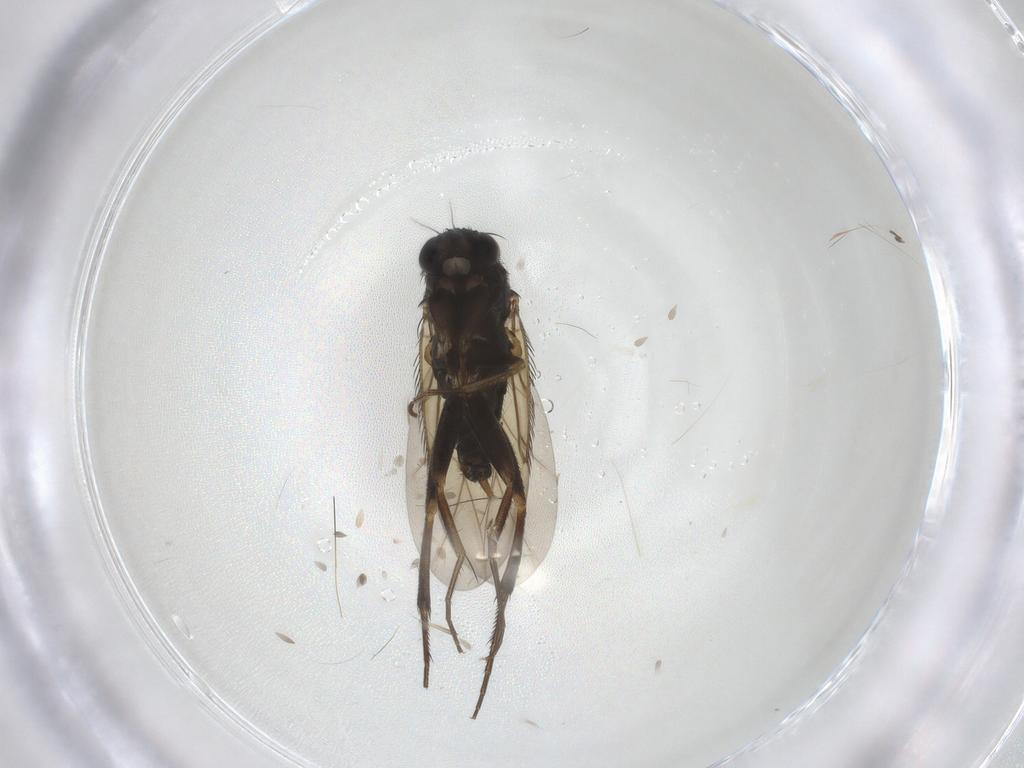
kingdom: Animalia
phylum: Arthropoda
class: Insecta
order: Diptera
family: Phoridae
